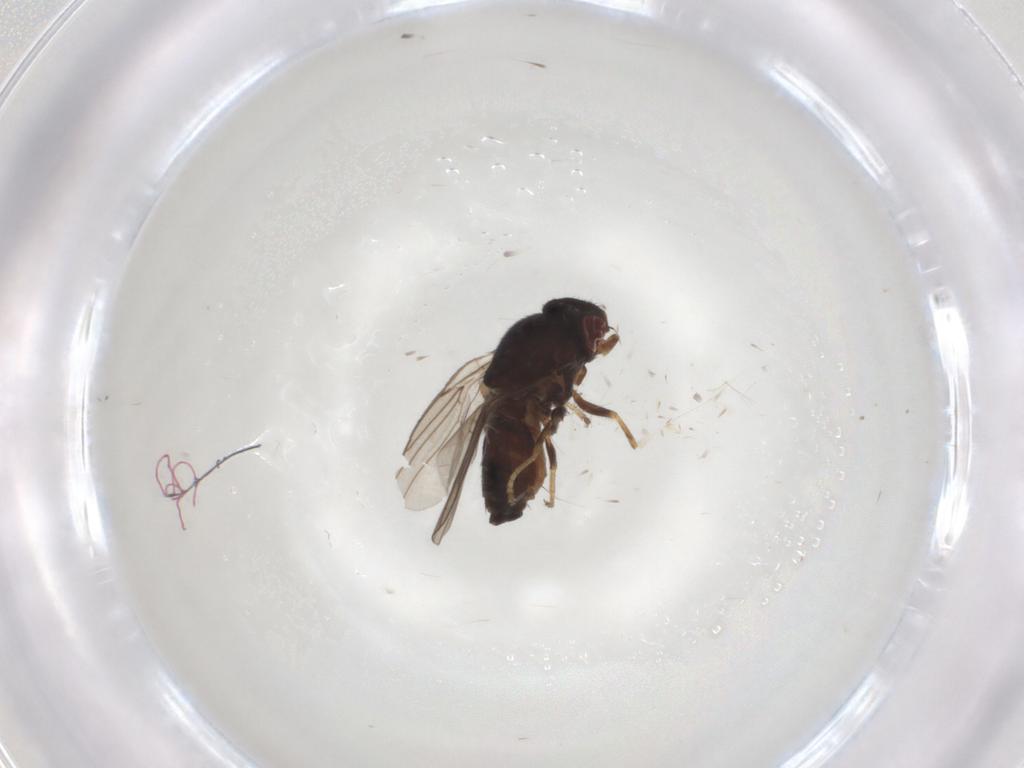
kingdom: Animalia
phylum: Arthropoda
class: Insecta
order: Diptera
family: Chloropidae
